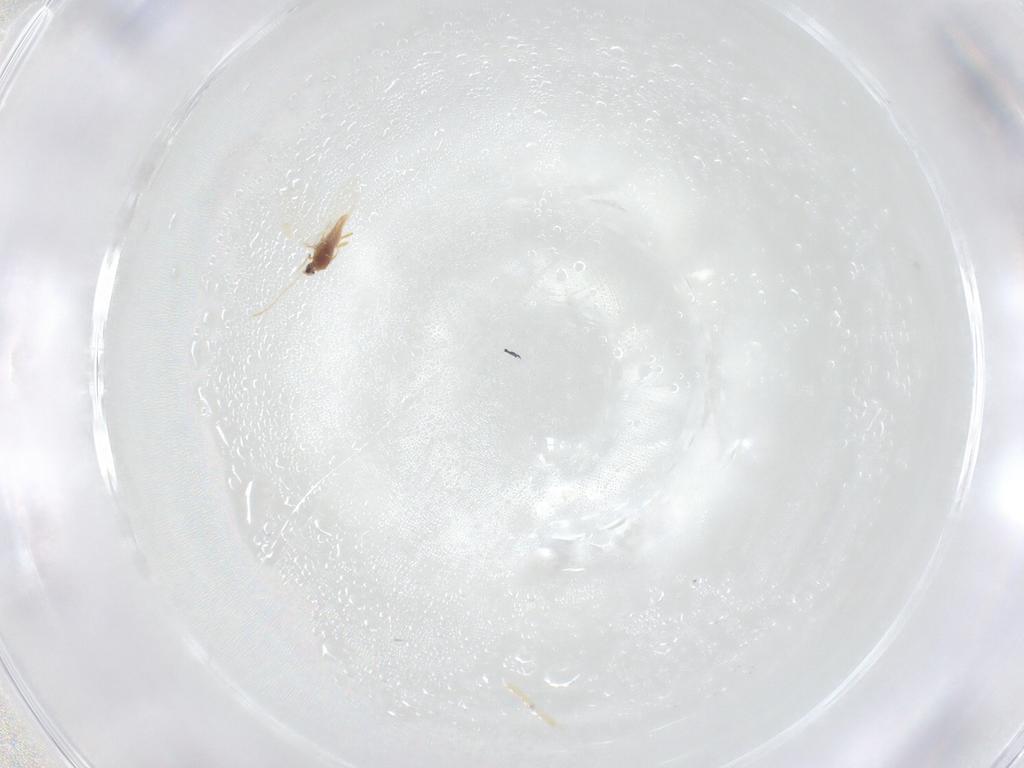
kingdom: Animalia
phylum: Arthropoda
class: Insecta
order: Diptera
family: Cecidomyiidae
